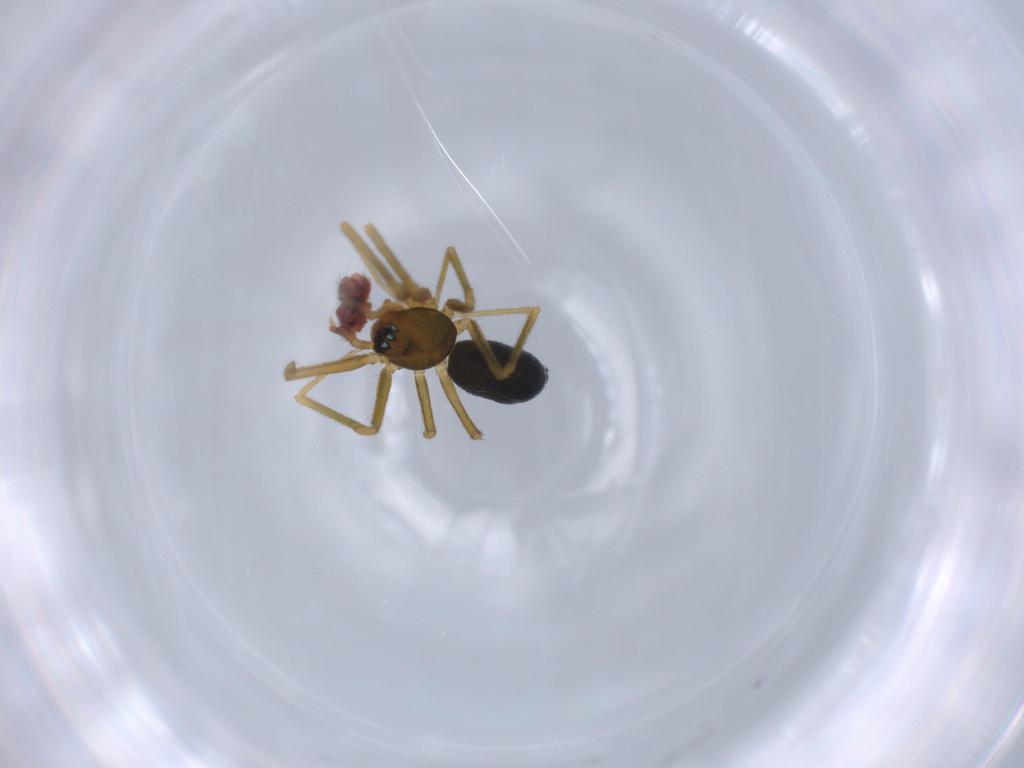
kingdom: Animalia
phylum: Arthropoda
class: Arachnida
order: Araneae
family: Linyphiidae
